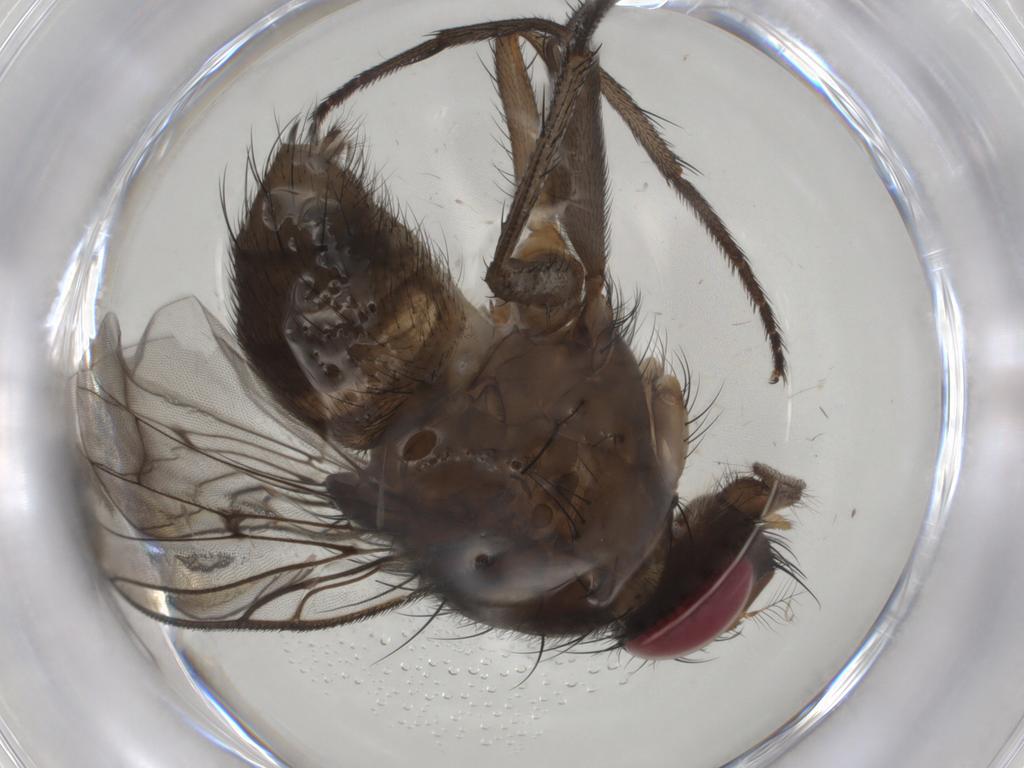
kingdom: Animalia
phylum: Arthropoda
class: Insecta
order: Diptera
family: Muscidae
